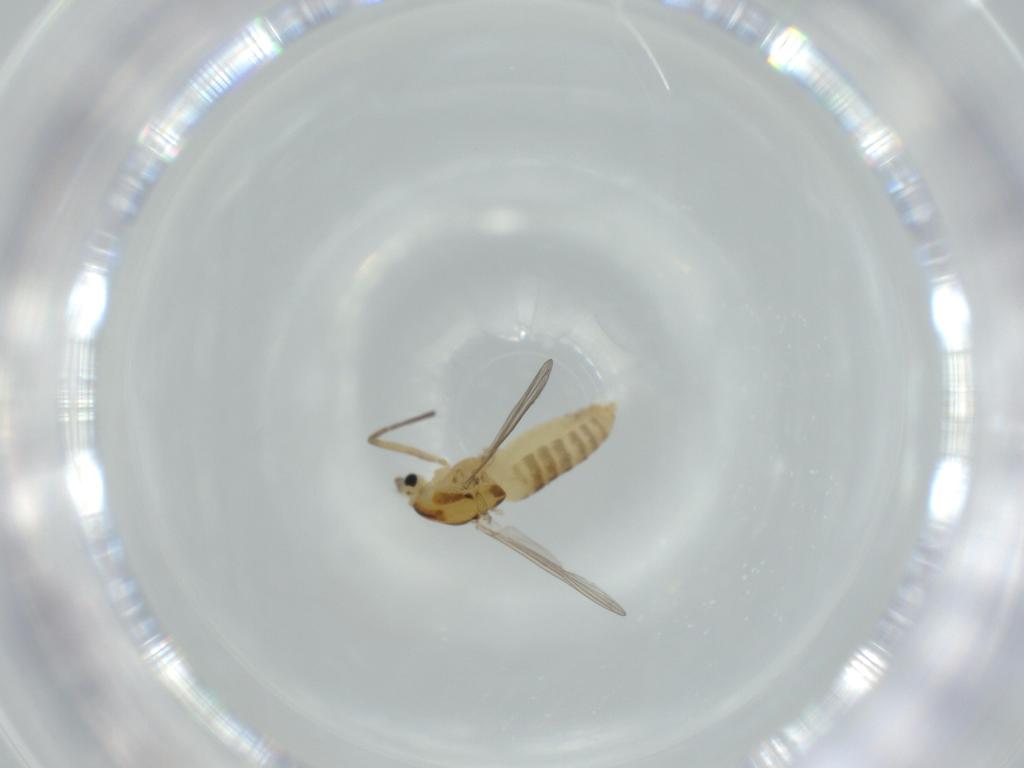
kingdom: Animalia
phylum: Arthropoda
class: Insecta
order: Diptera
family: Chironomidae
